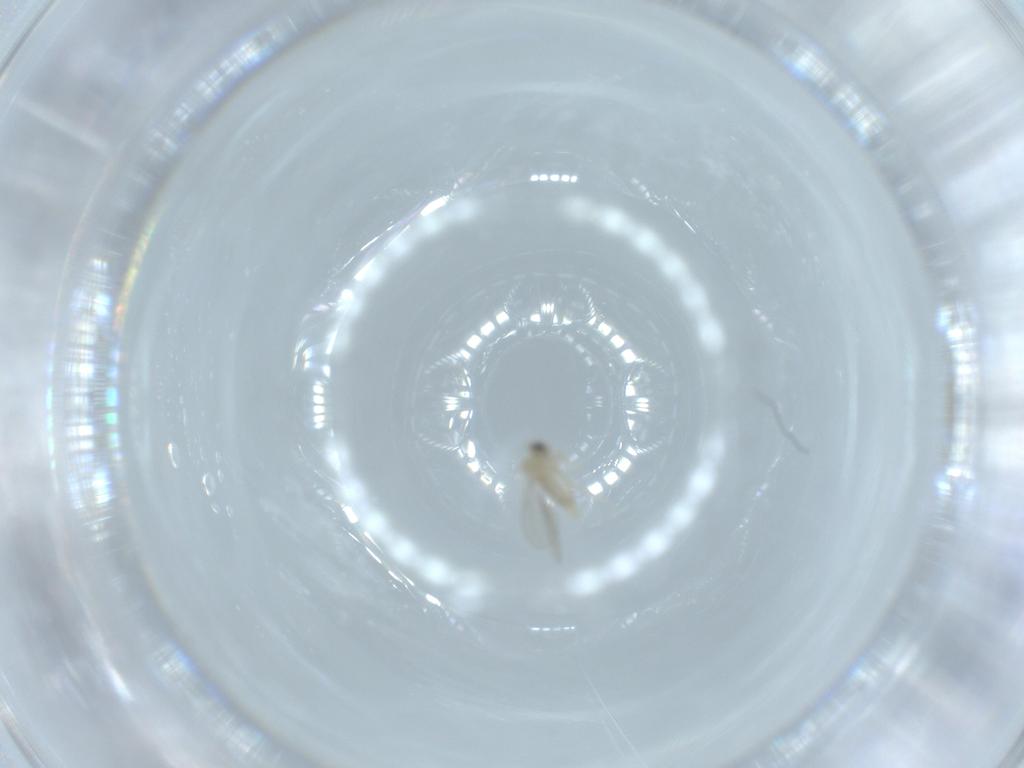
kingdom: Animalia
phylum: Arthropoda
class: Insecta
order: Diptera
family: Cecidomyiidae
